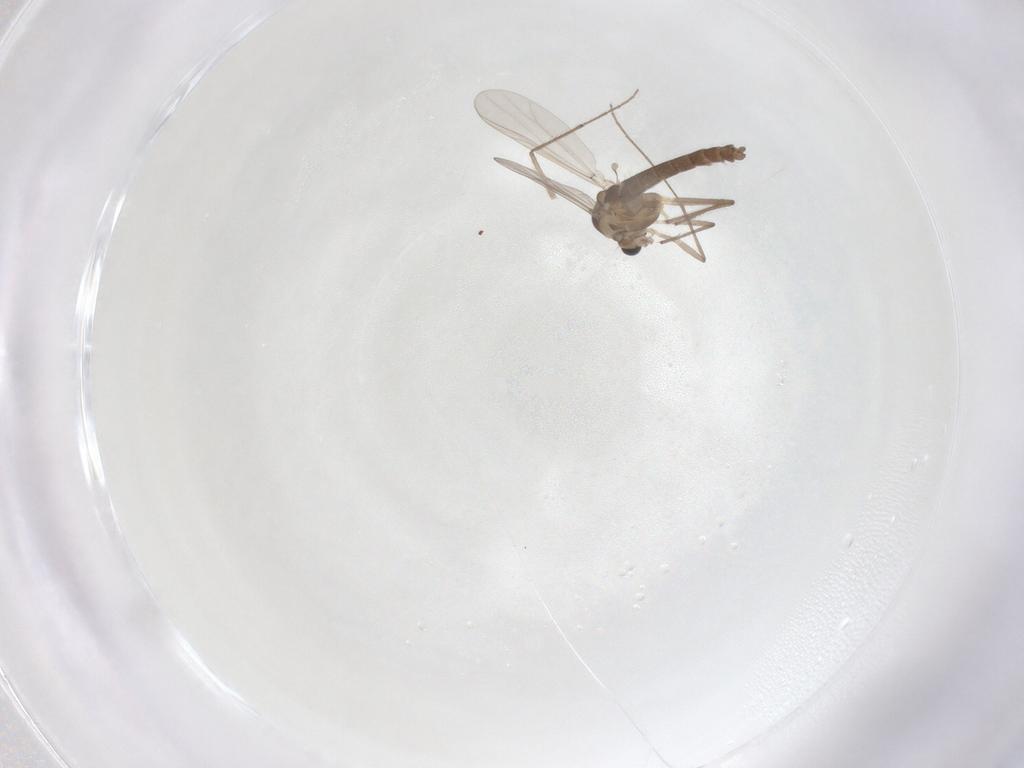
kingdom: Animalia
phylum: Arthropoda
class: Insecta
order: Diptera
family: Chironomidae
